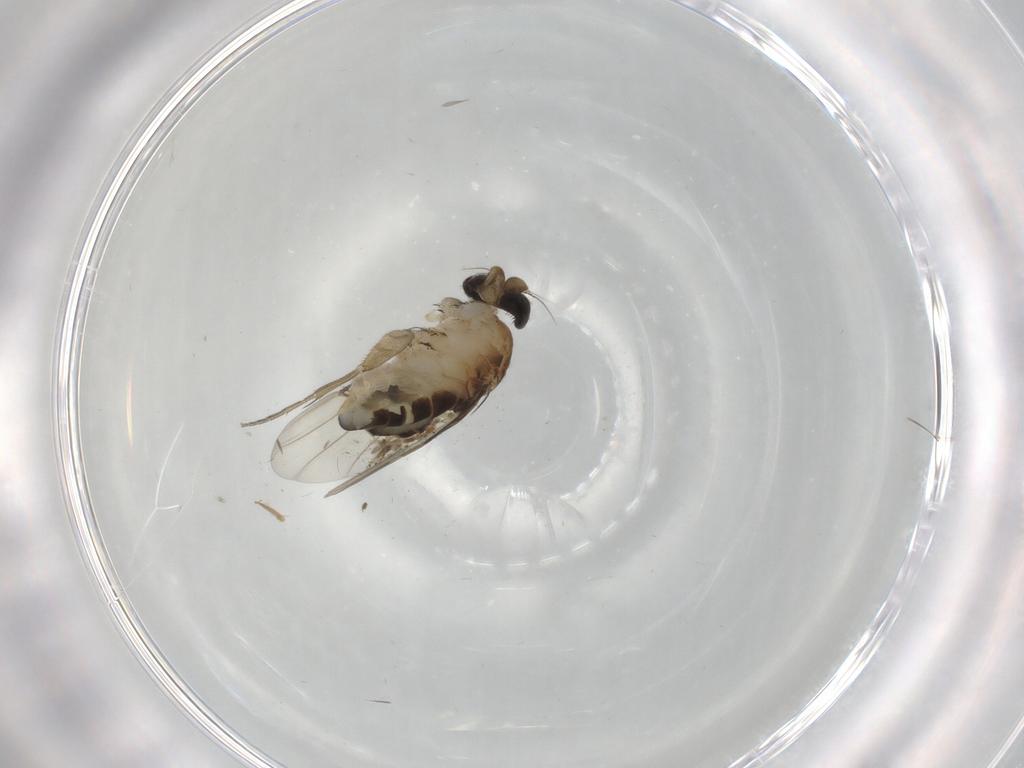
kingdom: Animalia
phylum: Arthropoda
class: Insecta
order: Diptera
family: Phoridae
